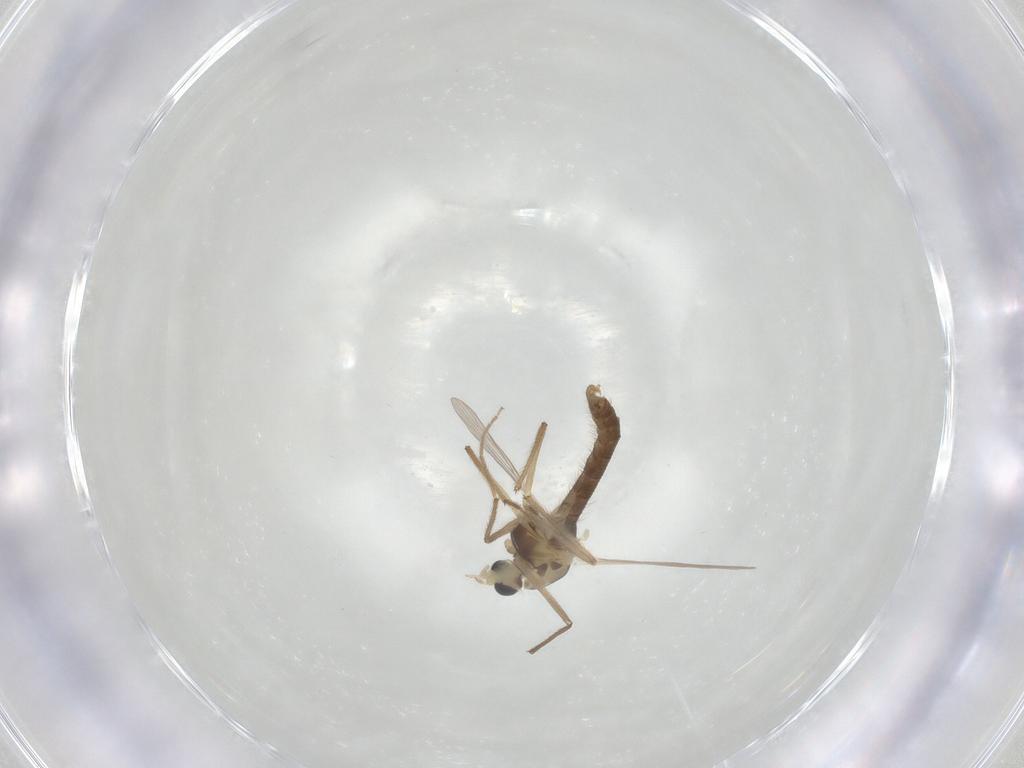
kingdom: Animalia
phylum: Arthropoda
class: Insecta
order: Diptera
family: Chironomidae
